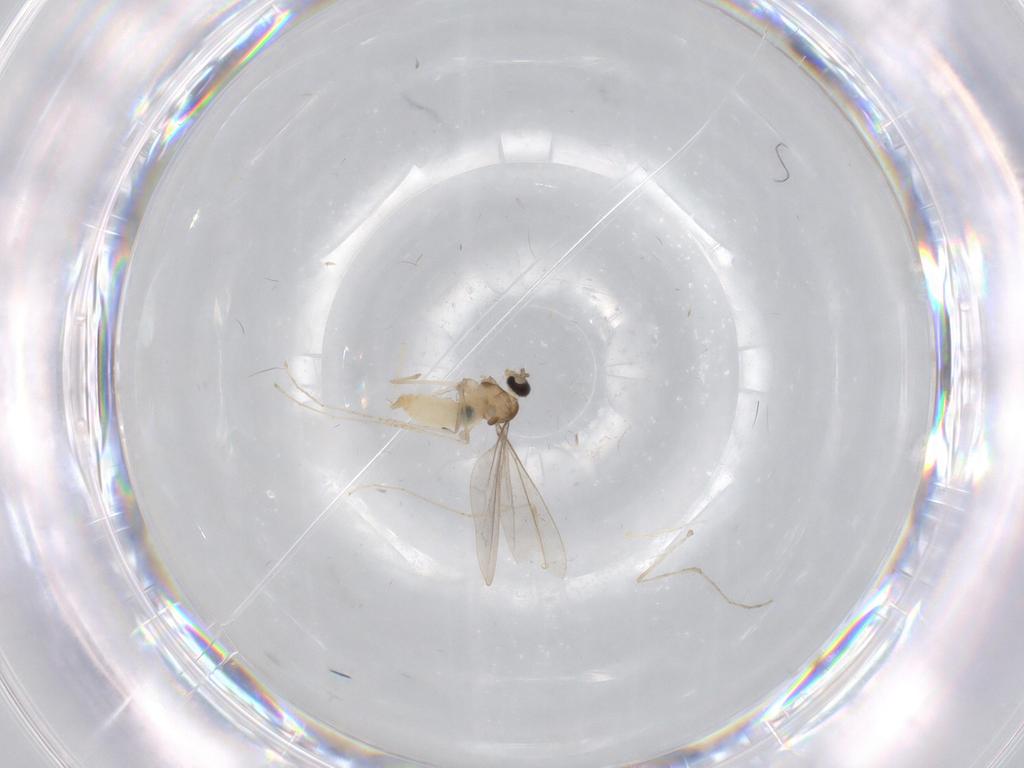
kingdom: Animalia
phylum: Arthropoda
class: Insecta
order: Diptera
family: Cecidomyiidae
